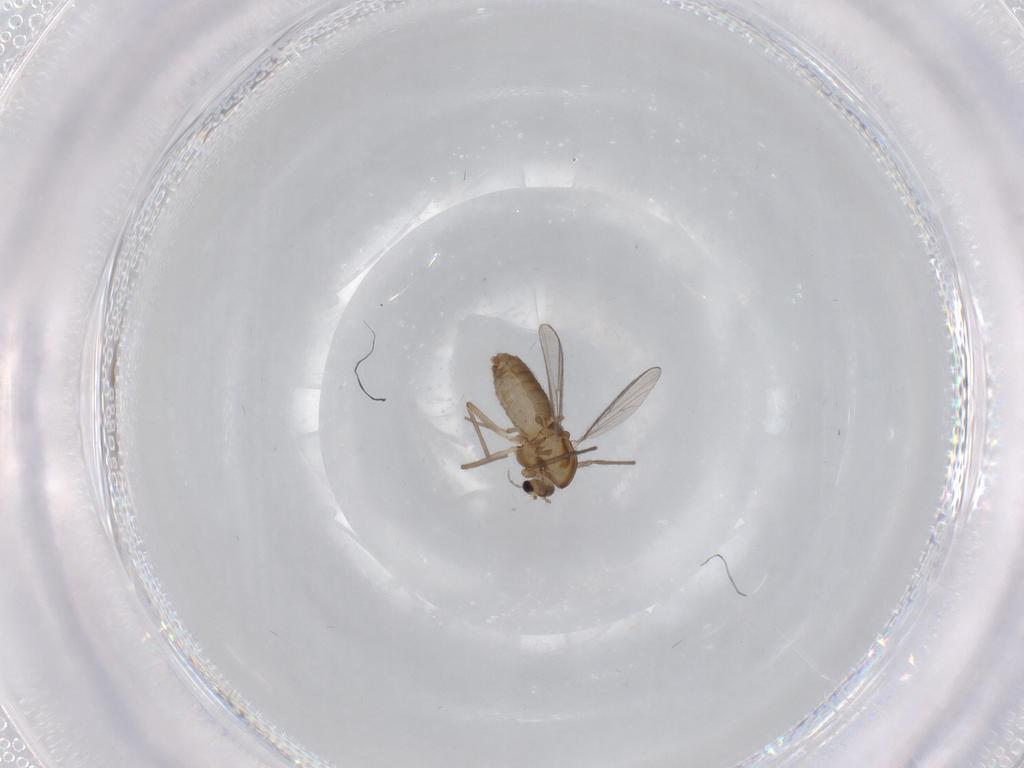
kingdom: Animalia
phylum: Arthropoda
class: Insecta
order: Diptera
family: Chironomidae
